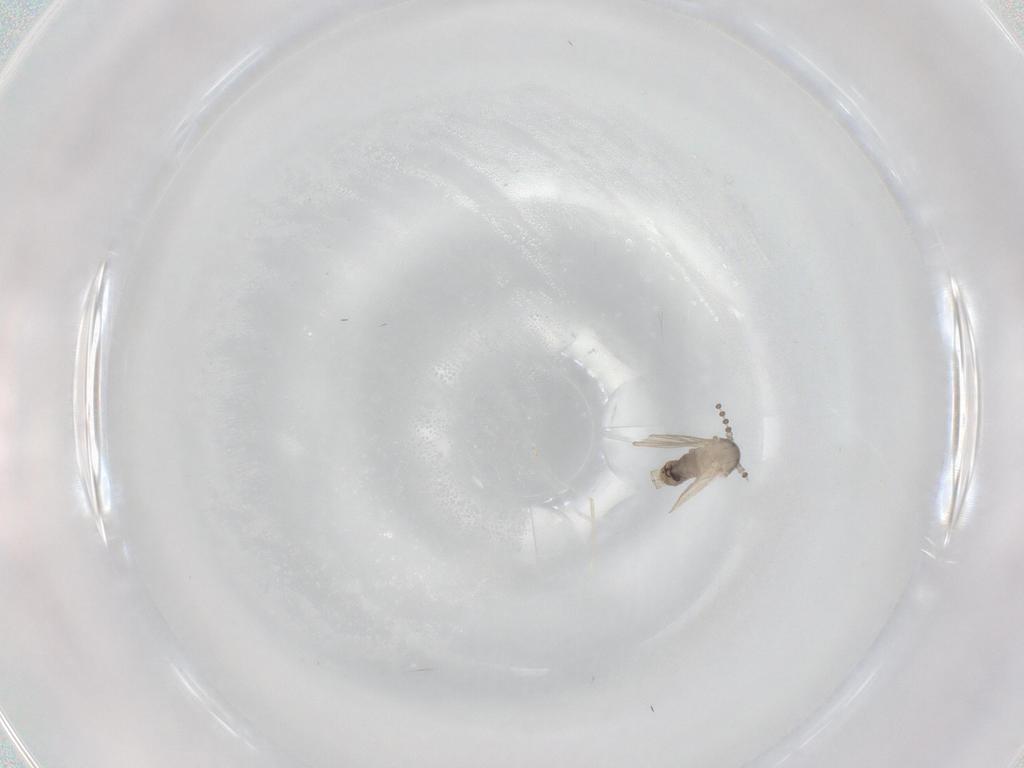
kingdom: Animalia
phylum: Arthropoda
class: Insecta
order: Diptera
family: Psychodidae
